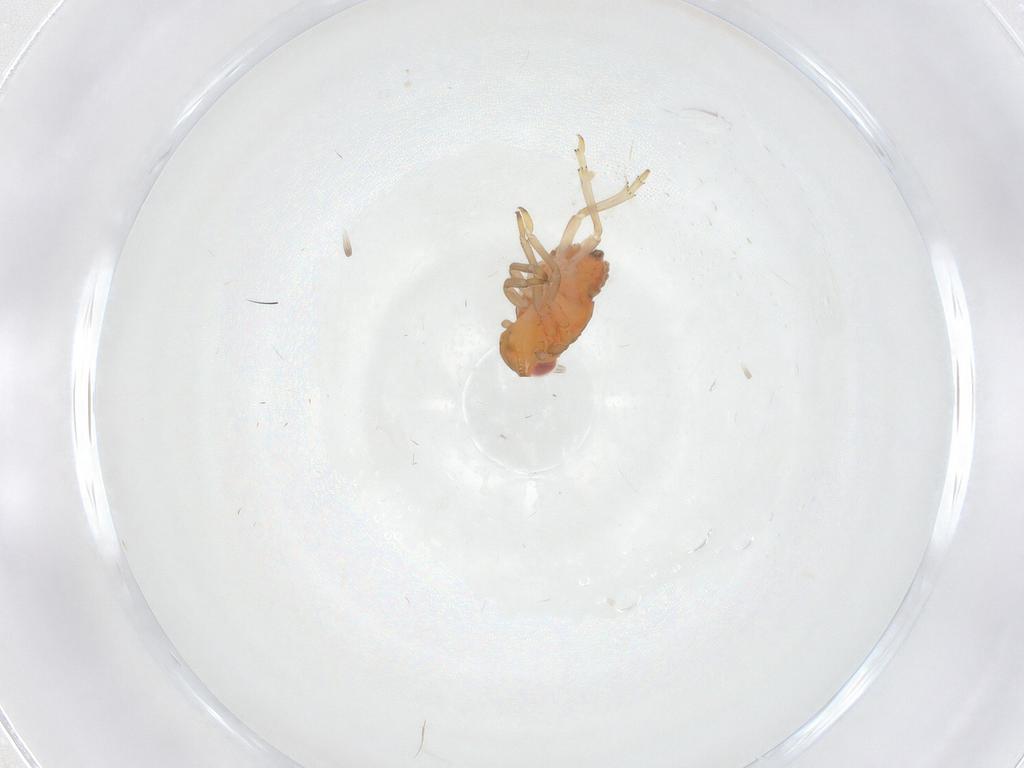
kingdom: Animalia
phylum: Arthropoda
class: Insecta
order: Hemiptera
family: Fulgoroidea_incertae_sedis
